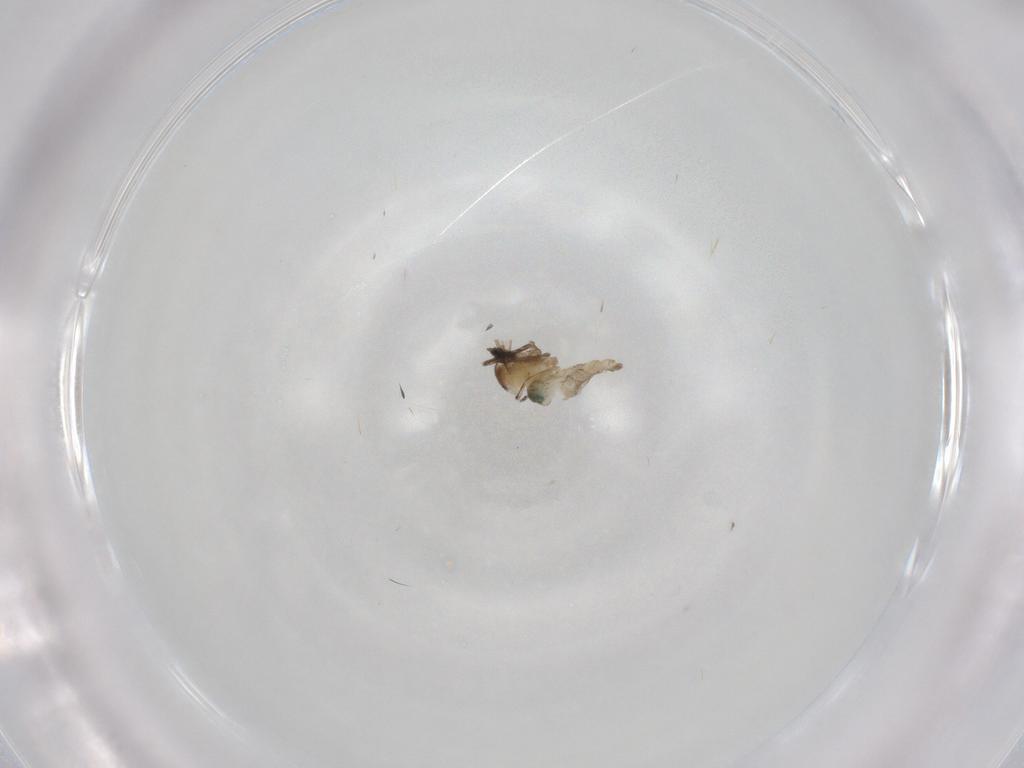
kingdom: Animalia
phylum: Arthropoda
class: Insecta
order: Diptera
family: Cecidomyiidae
